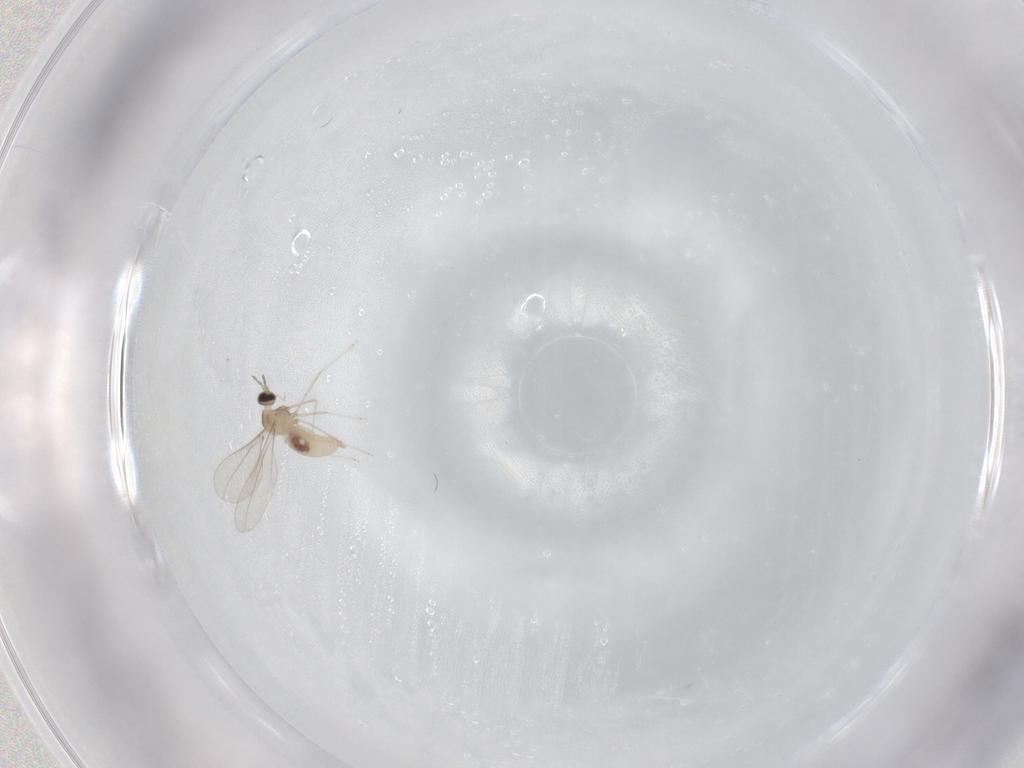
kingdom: Animalia
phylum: Arthropoda
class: Insecta
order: Diptera
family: Cecidomyiidae
